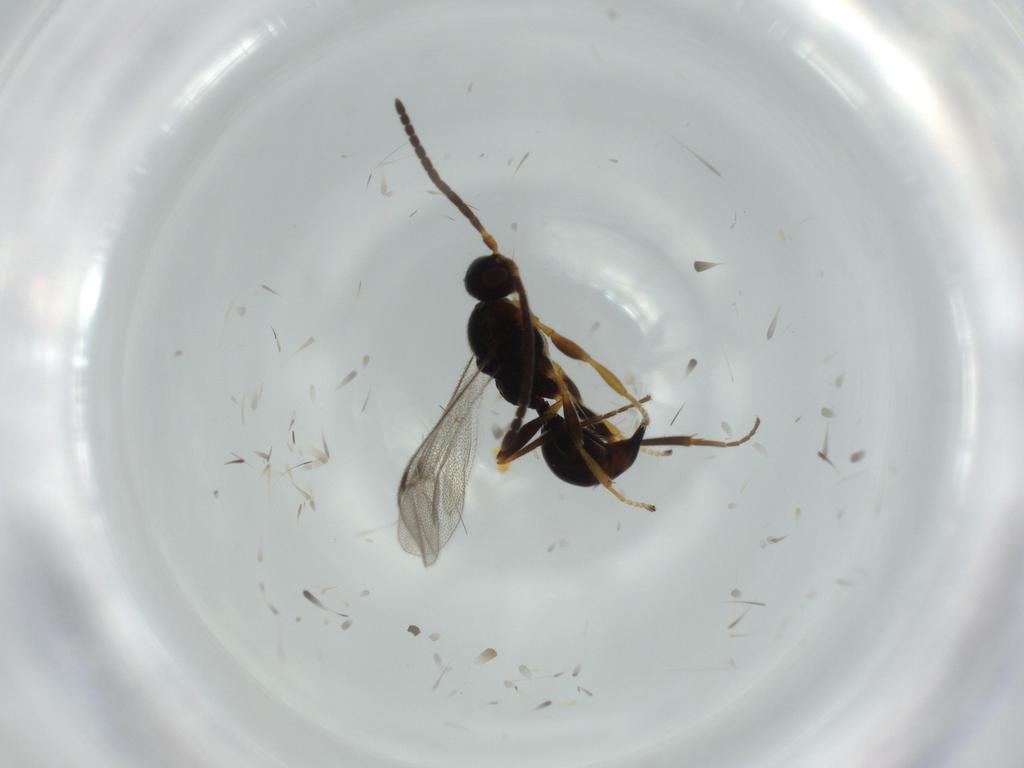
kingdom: Animalia
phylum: Arthropoda
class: Insecta
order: Hymenoptera
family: Proctotrupidae
